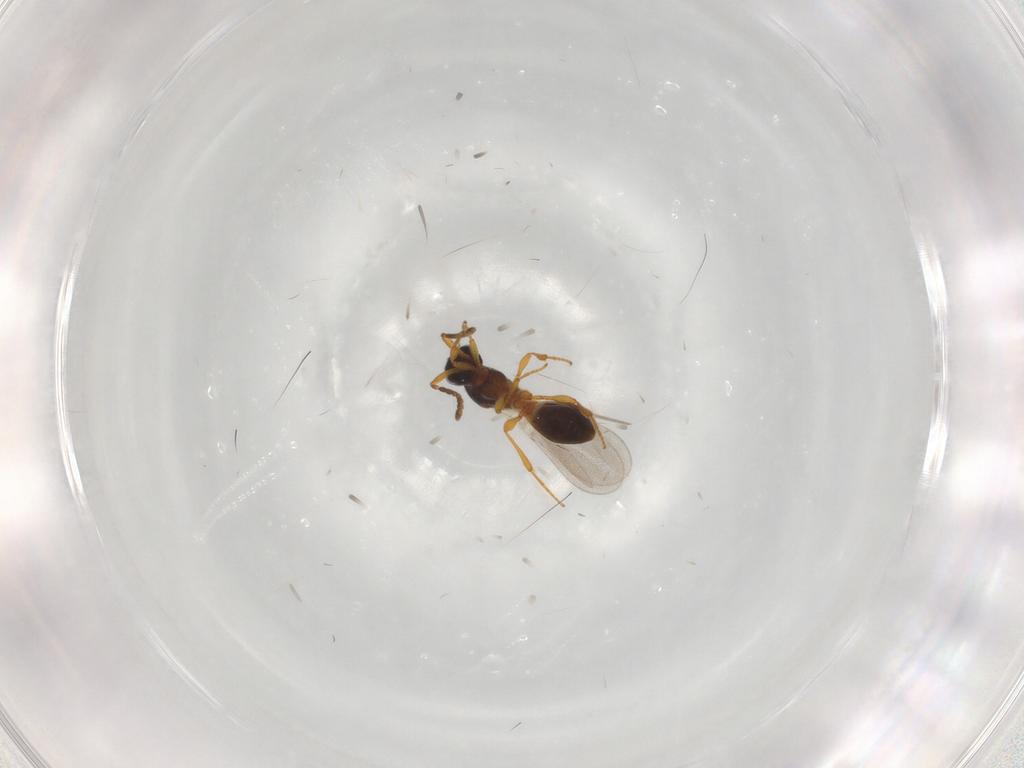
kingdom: Animalia
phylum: Arthropoda
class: Insecta
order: Hymenoptera
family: Platygastridae
